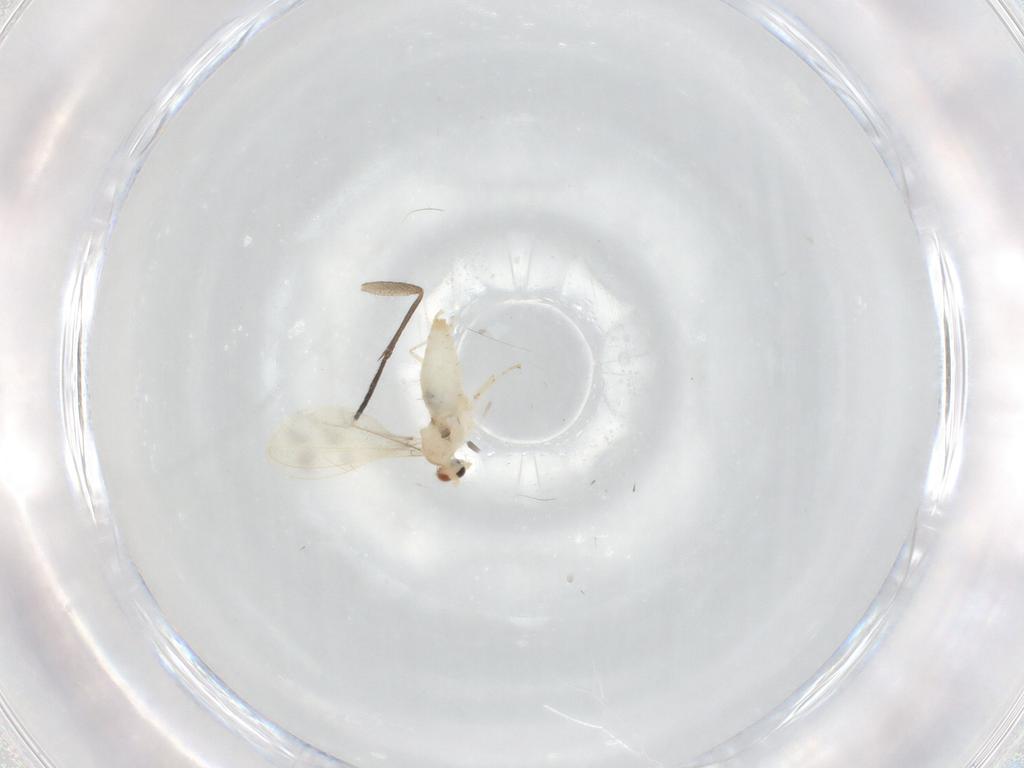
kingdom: Animalia
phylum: Arthropoda
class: Insecta
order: Diptera
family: Cecidomyiidae
